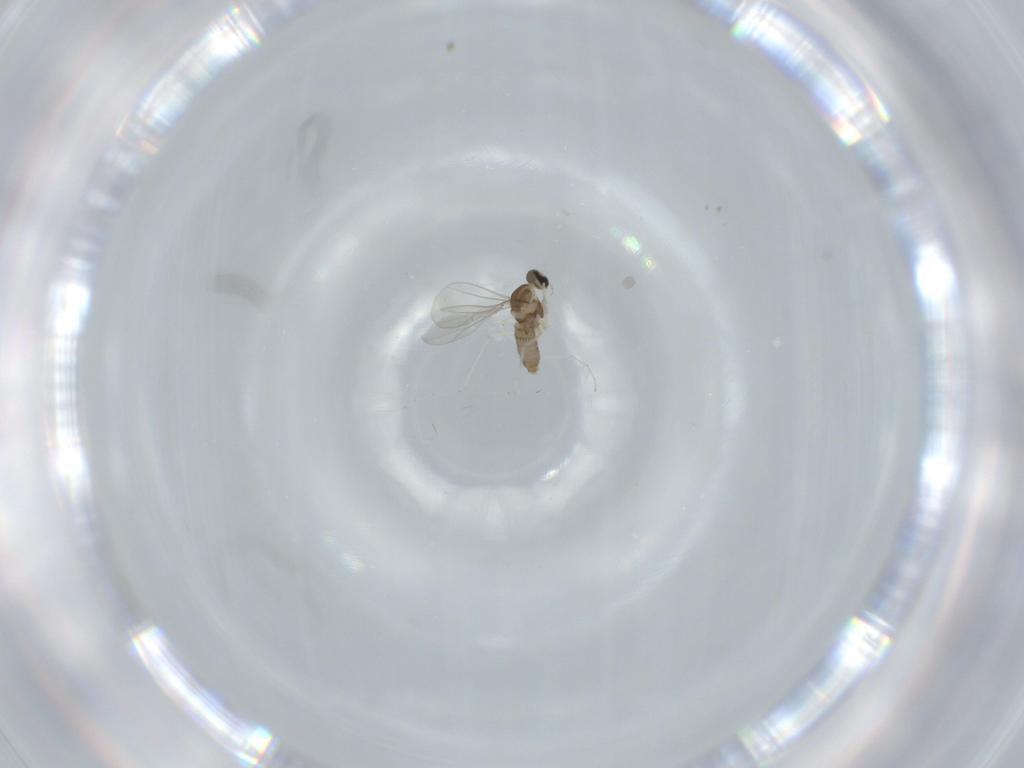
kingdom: Animalia
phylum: Arthropoda
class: Insecta
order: Diptera
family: Cecidomyiidae
